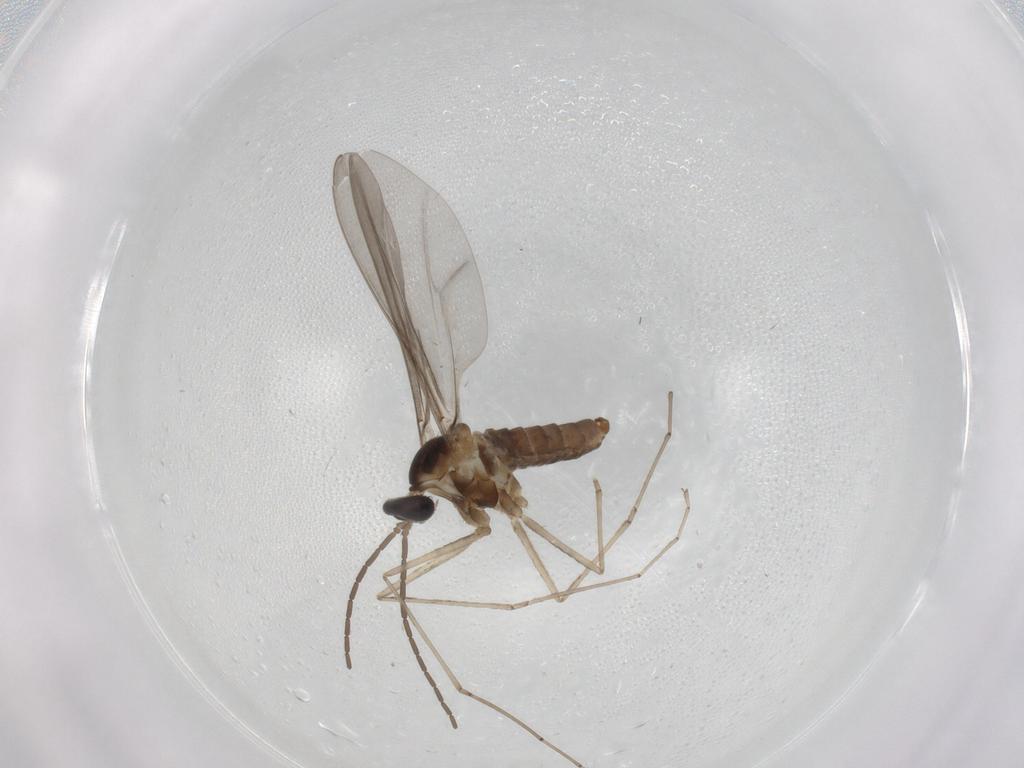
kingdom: Animalia
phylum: Arthropoda
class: Insecta
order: Diptera
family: Cecidomyiidae
